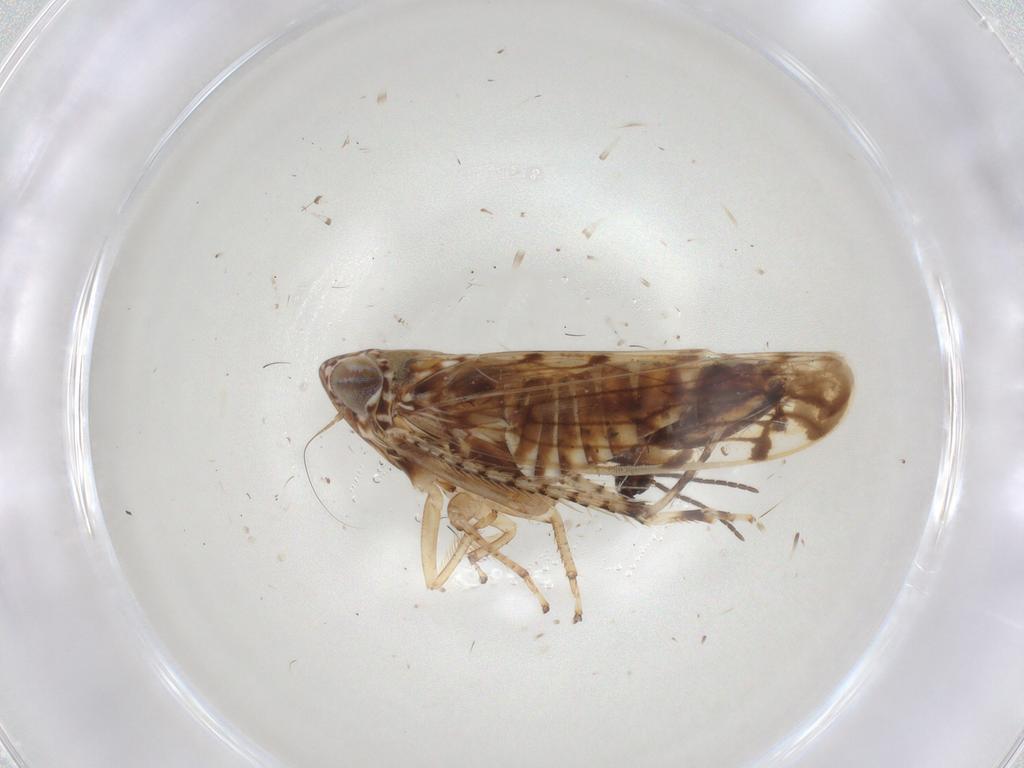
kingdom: Animalia
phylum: Arthropoda
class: Insecta
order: Hemiptera
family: Cicadellidae
